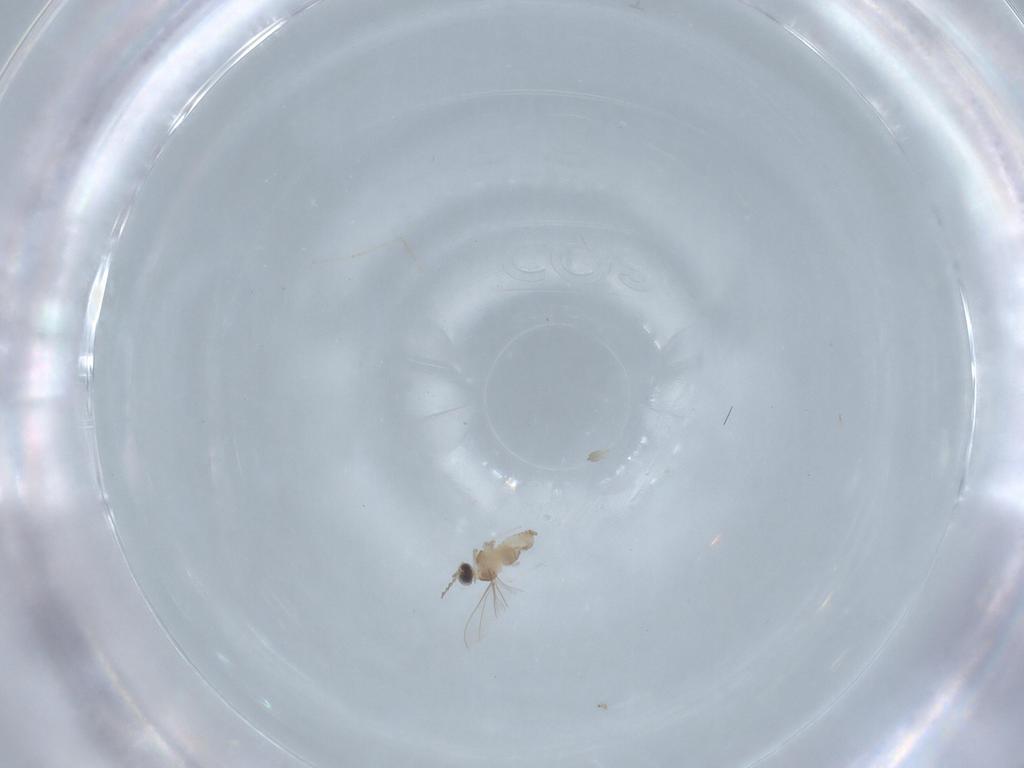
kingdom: Animalia
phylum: Arthropoda
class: Insecta
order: Diptera
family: Cecidomyiidae
